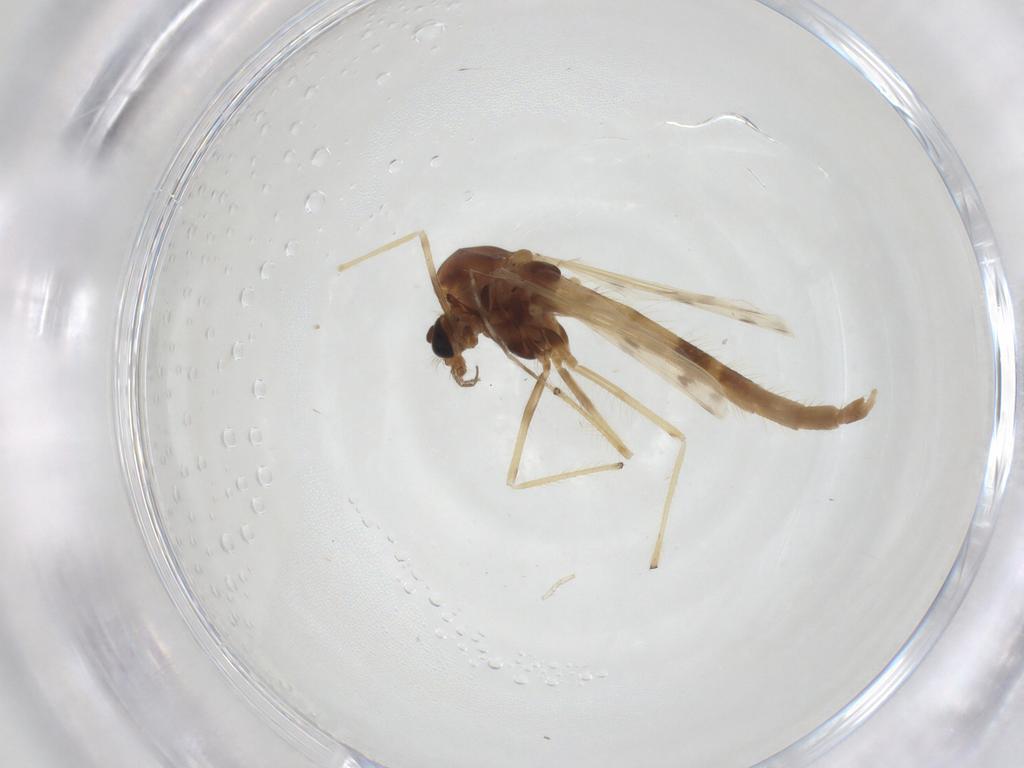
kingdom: Animalia
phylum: Arthropoda
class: Insecta
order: Diptera
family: Chironomidae
